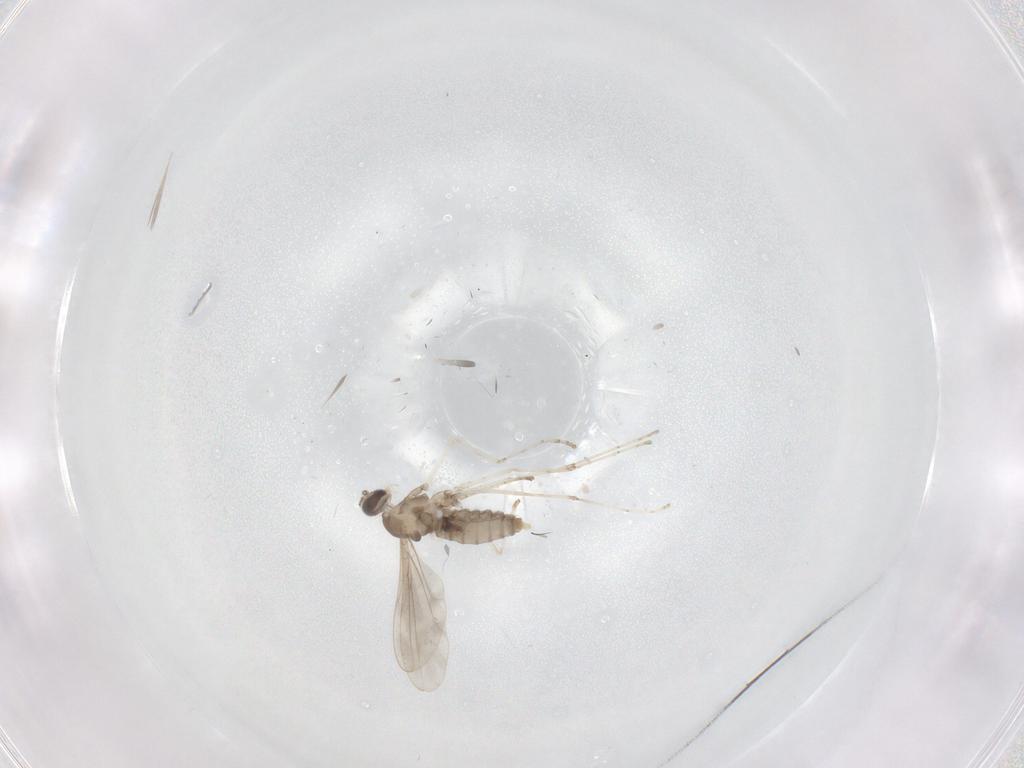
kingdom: Animalia
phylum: Arthropoda
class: Insecta
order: Diptera
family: Cecidomyiidae
